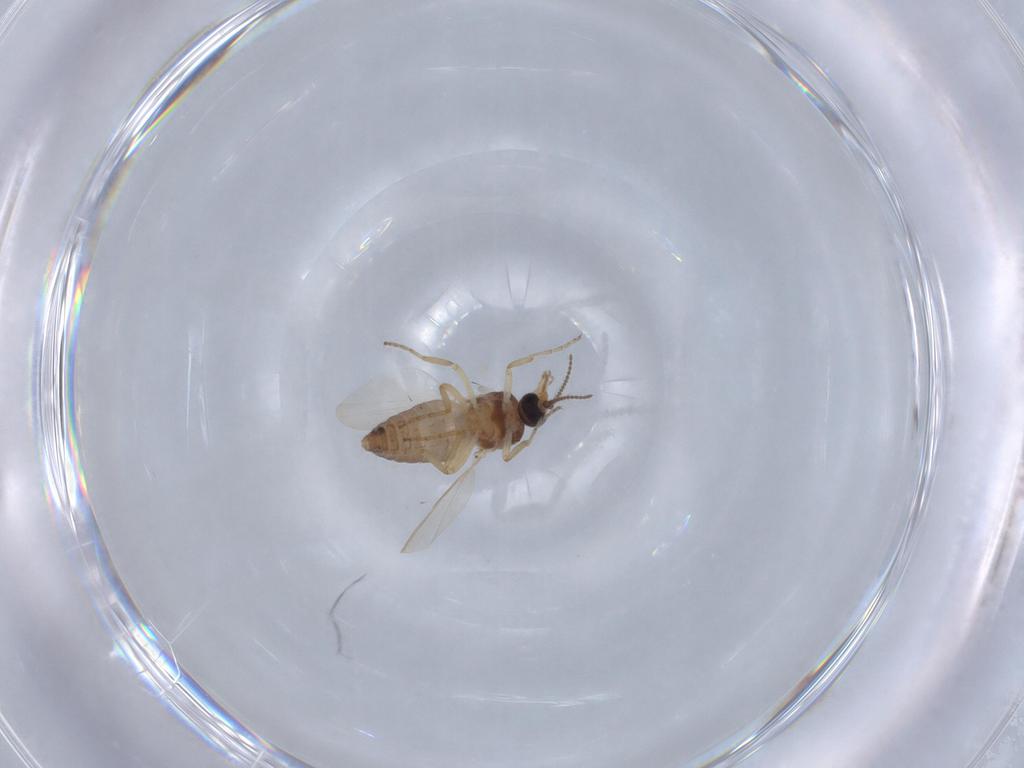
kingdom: Animalia
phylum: Arthropoda
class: Insecta
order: Diptera
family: Ceratopogonidae
